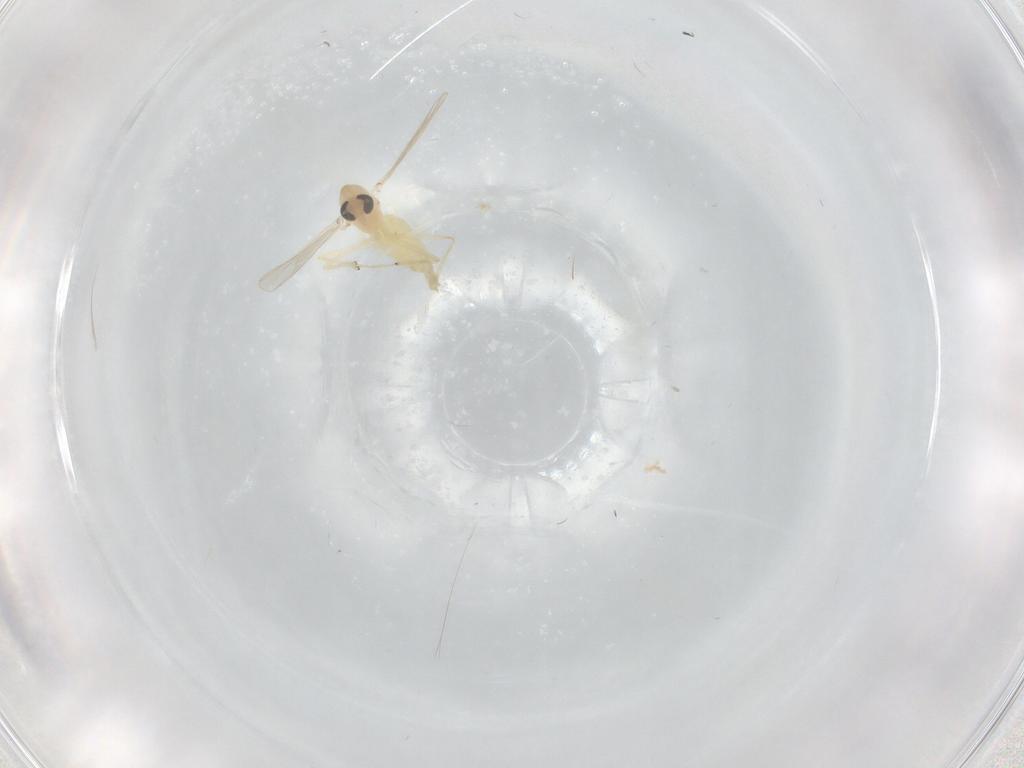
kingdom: Animalia
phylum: Arthropoda
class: Insecta
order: Diptera
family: Chironomidae
